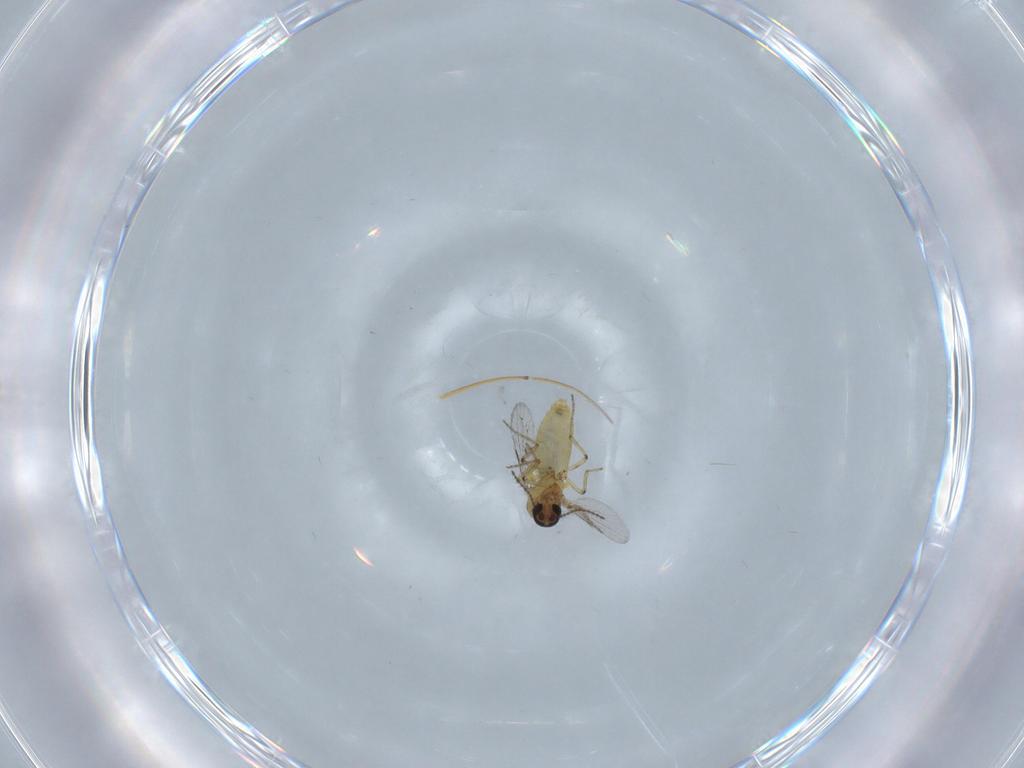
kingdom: Animalia
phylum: Arthropoda
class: Insecta
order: Diptera
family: Ceratopogonidae
